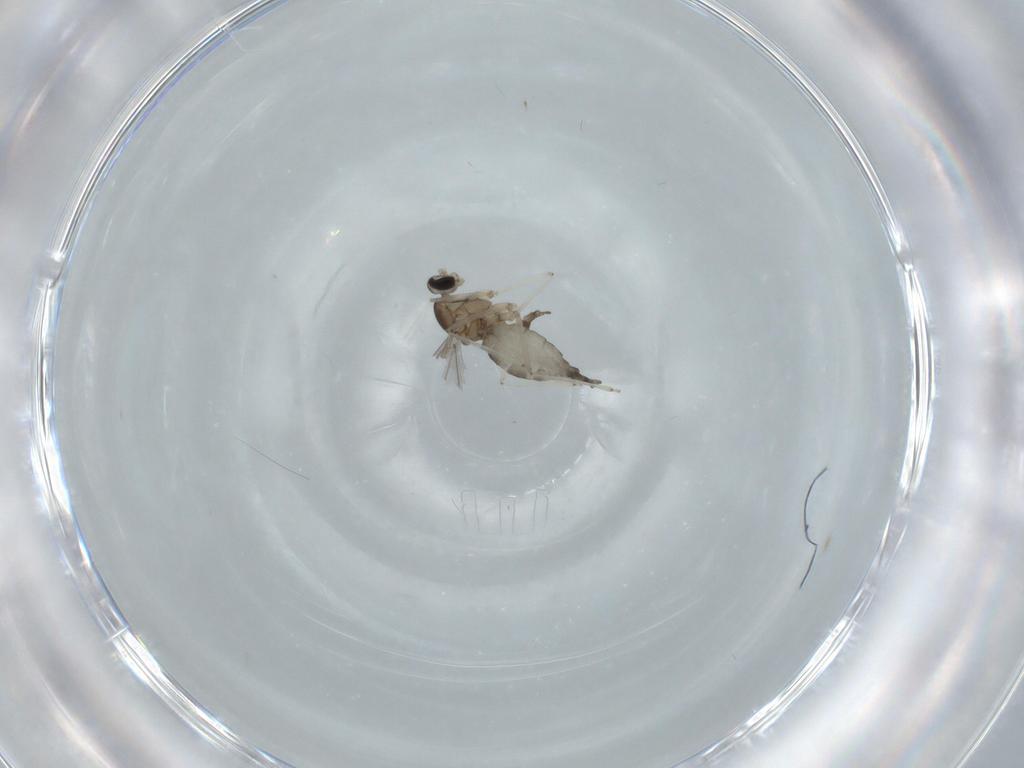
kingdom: Animalia
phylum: Arthropoda
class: Insecta
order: Diptera
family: Cecidomyiidae
